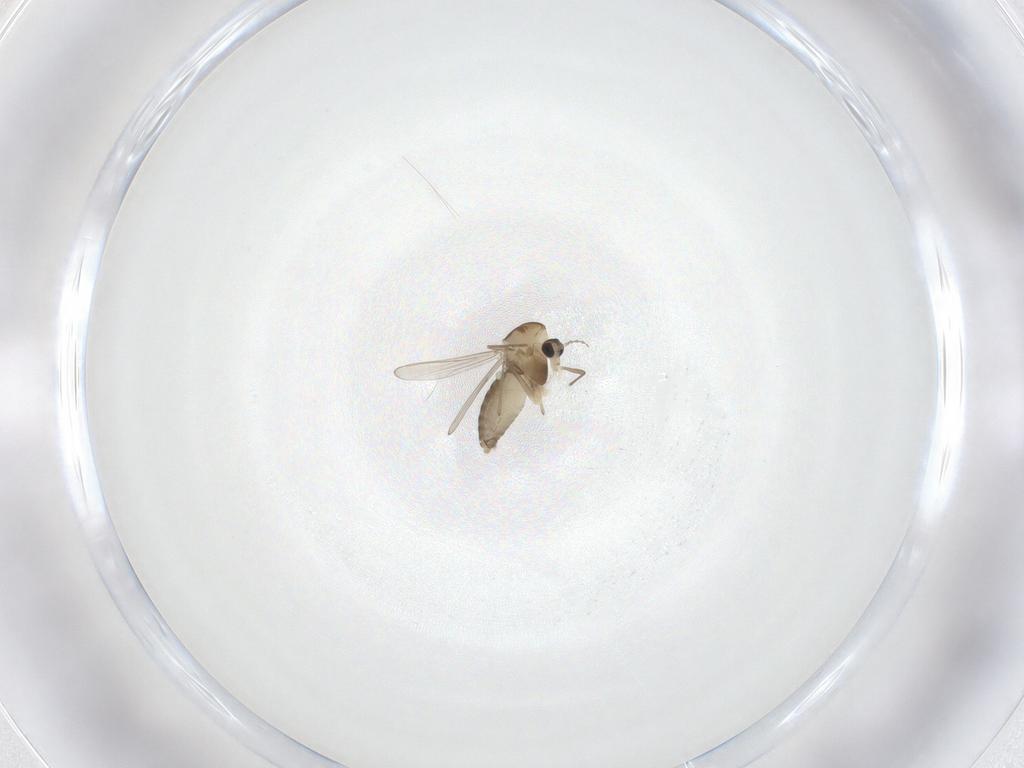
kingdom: Animalia
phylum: Arthropoda
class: Insecta
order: Diptera
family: Chironomidae
